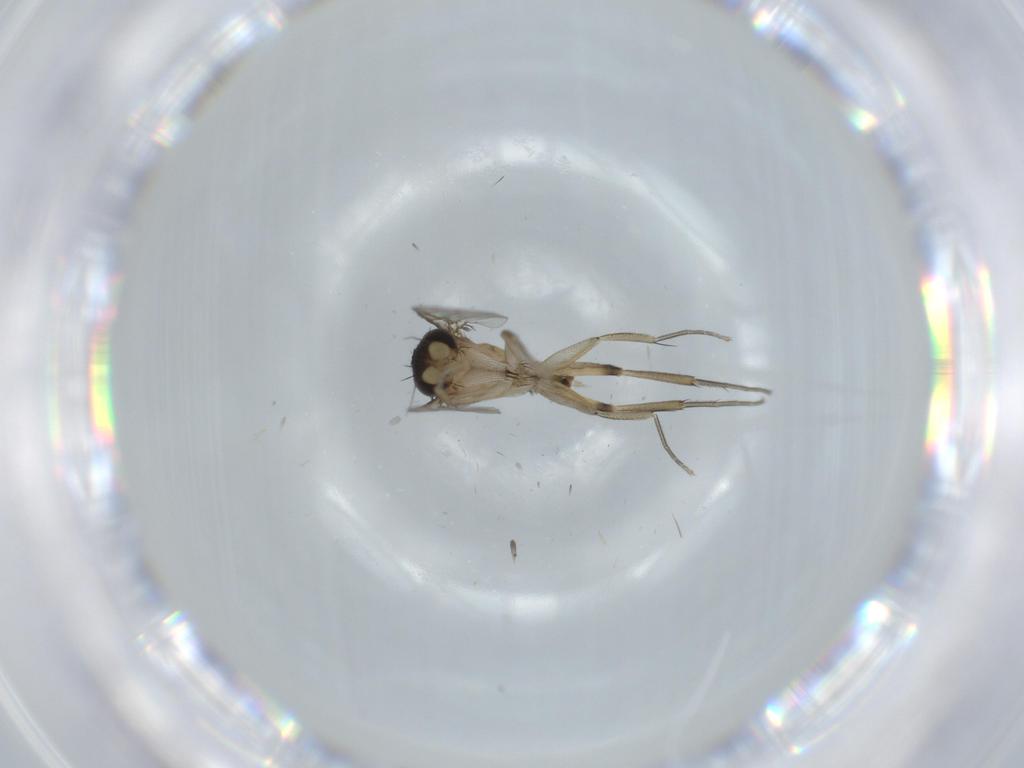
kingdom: Animalia
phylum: Arthropoda
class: Insecta
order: Diptera
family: Phoridae
